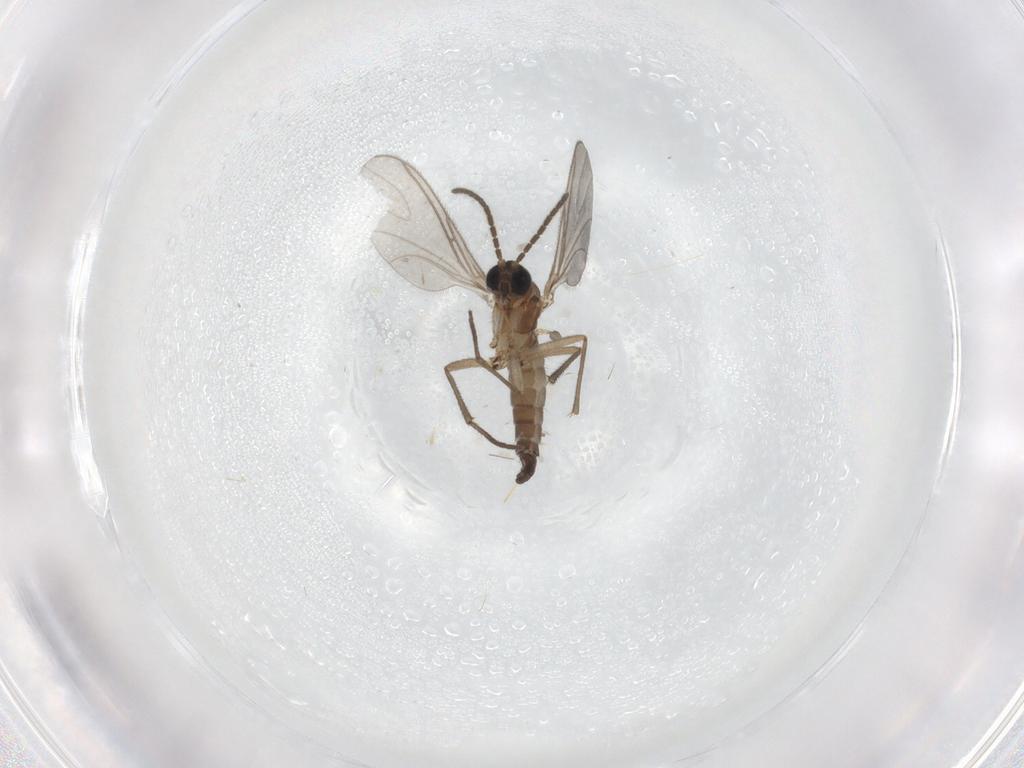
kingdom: Animalia
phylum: Arthropoda
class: Insecta
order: Diptera
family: Sciaridae
